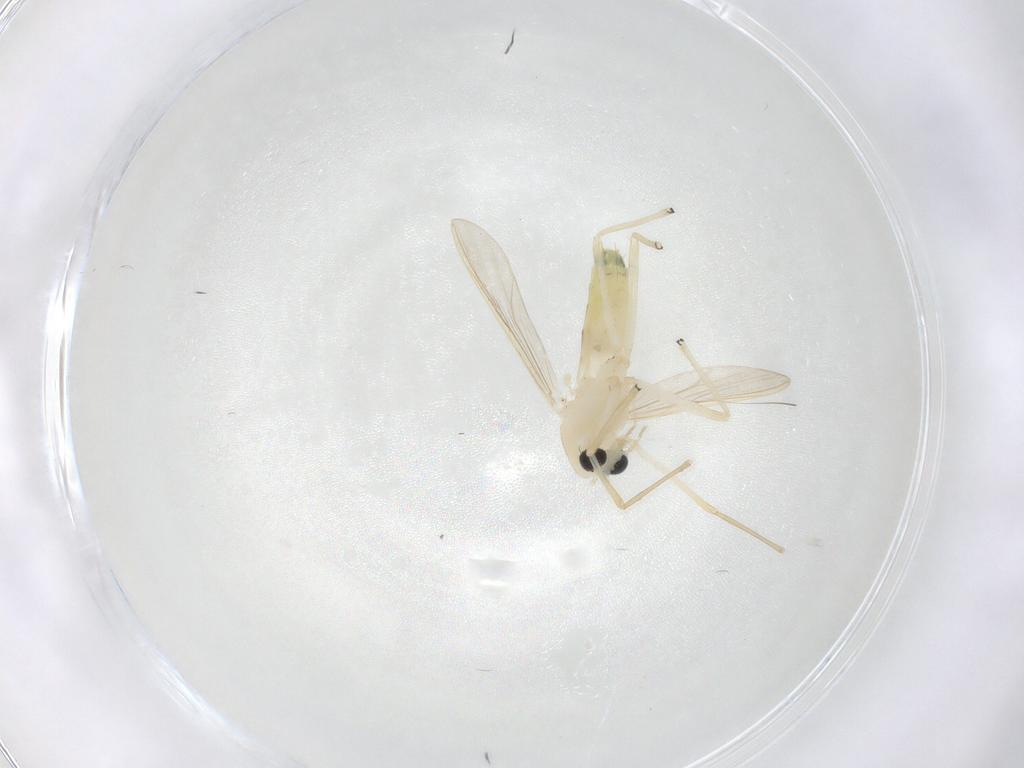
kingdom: Animalia
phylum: Arthropoda
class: Insecta
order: Diptera
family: Chironomidae
